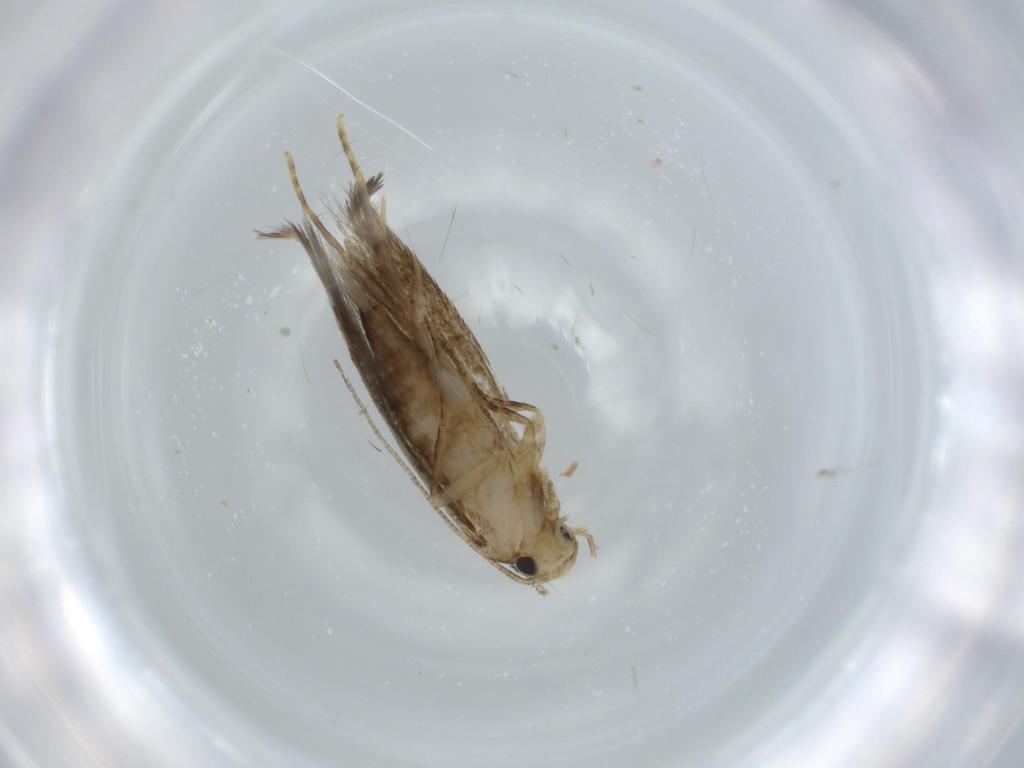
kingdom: Animalia
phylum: Arthropoda
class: Insecta
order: Lepidoptera
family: Tineidae
